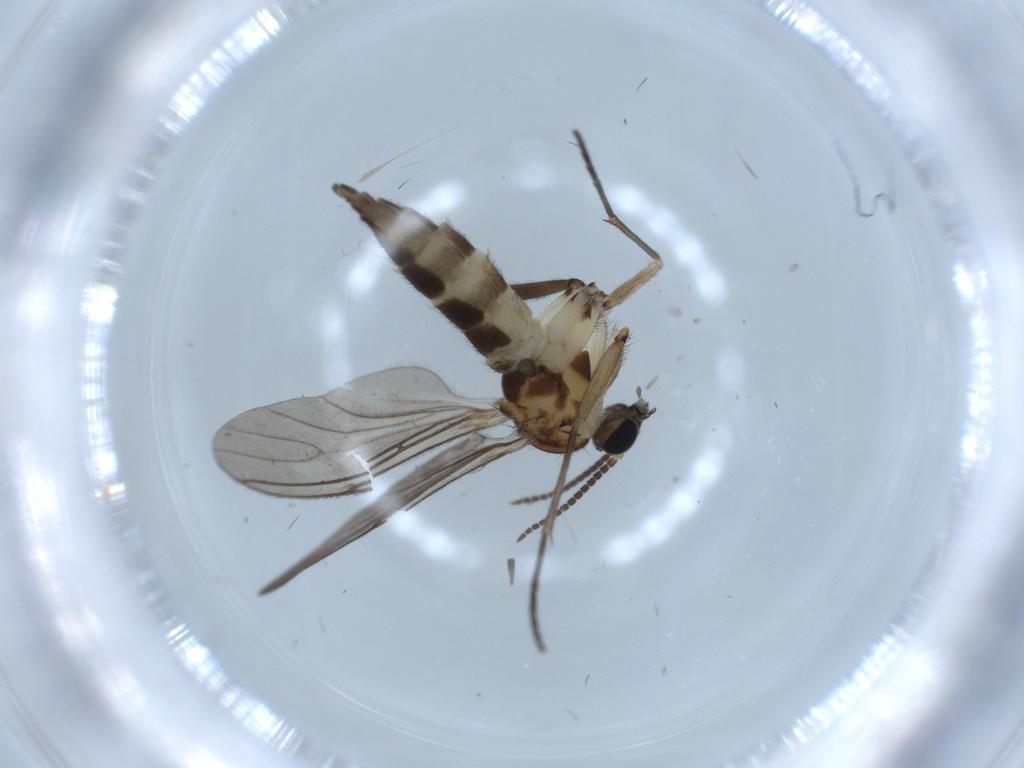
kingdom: Animalia
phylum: Arthropoda
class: Insecta
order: Diptera
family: Sciaridae
